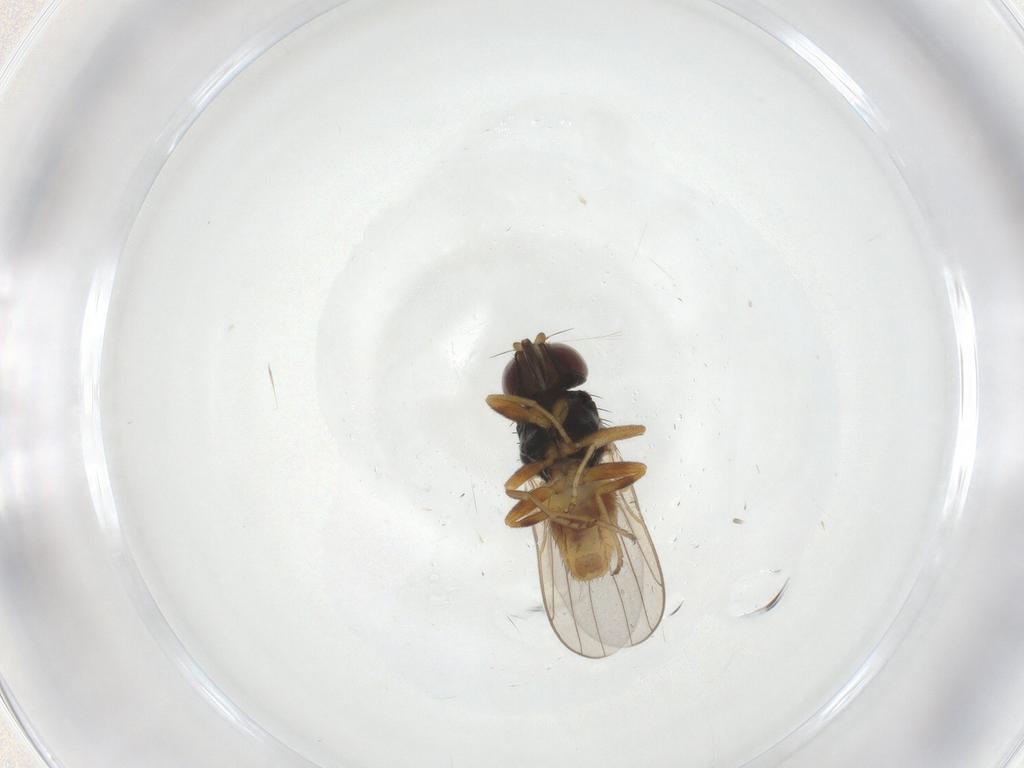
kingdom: Animalia
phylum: Arthropoda
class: Insecta
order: Diptera
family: Chloropidae
